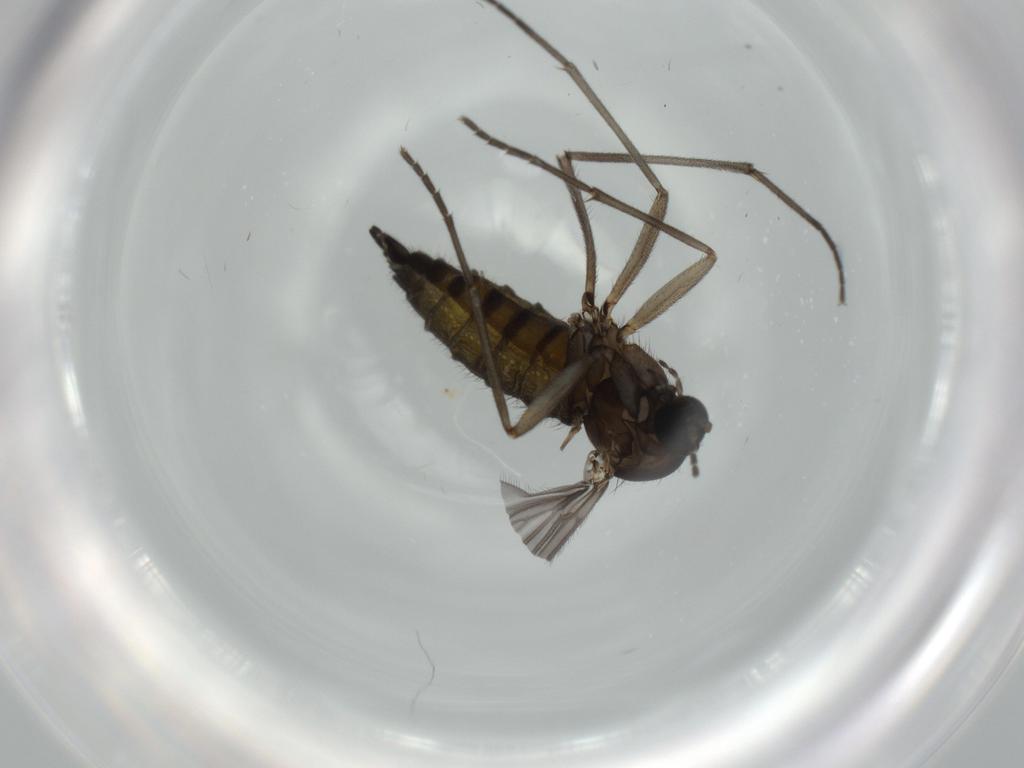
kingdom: Animalia
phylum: Arthropoda
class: Insecta
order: Diptera
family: Sciaridae
